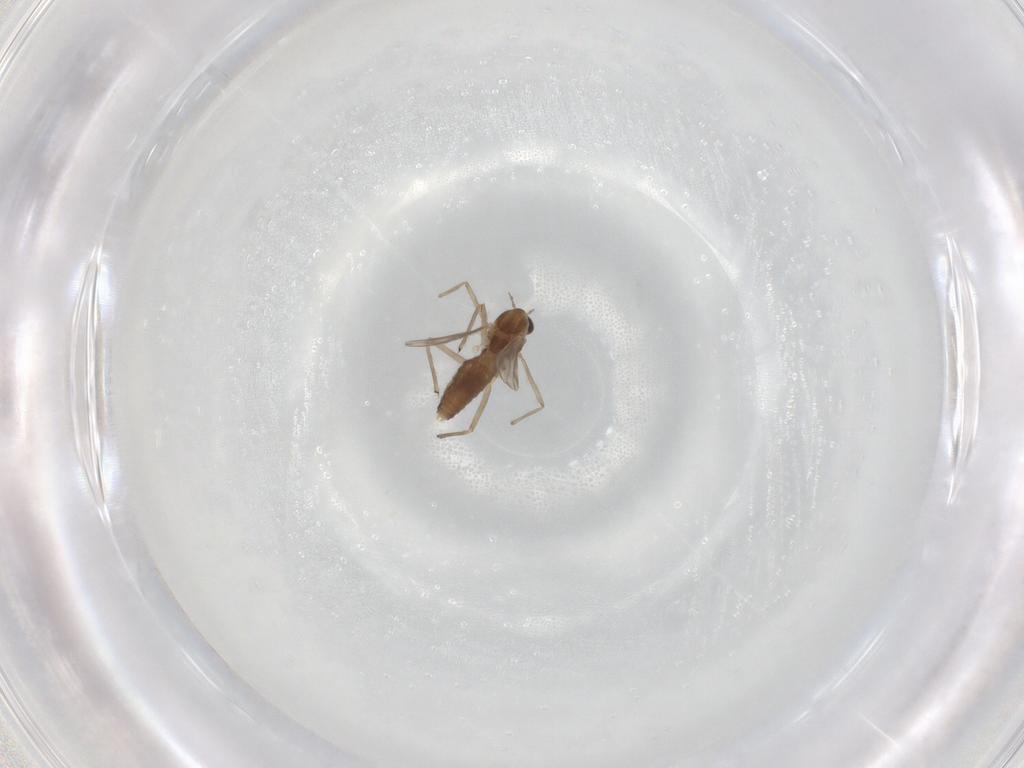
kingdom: Animalia
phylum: Arthropoda
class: Insecta
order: Diptera
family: Chironomidae
